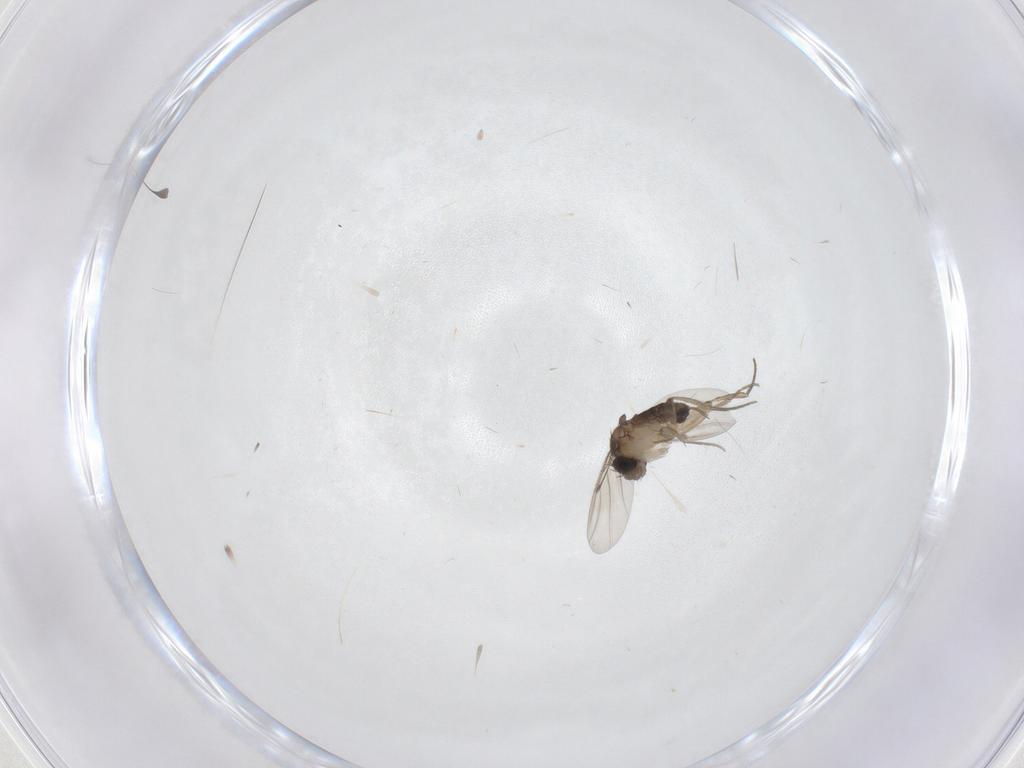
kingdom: Animalia
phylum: Arthropoda
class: Insecta
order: Diptera
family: Phoridae
